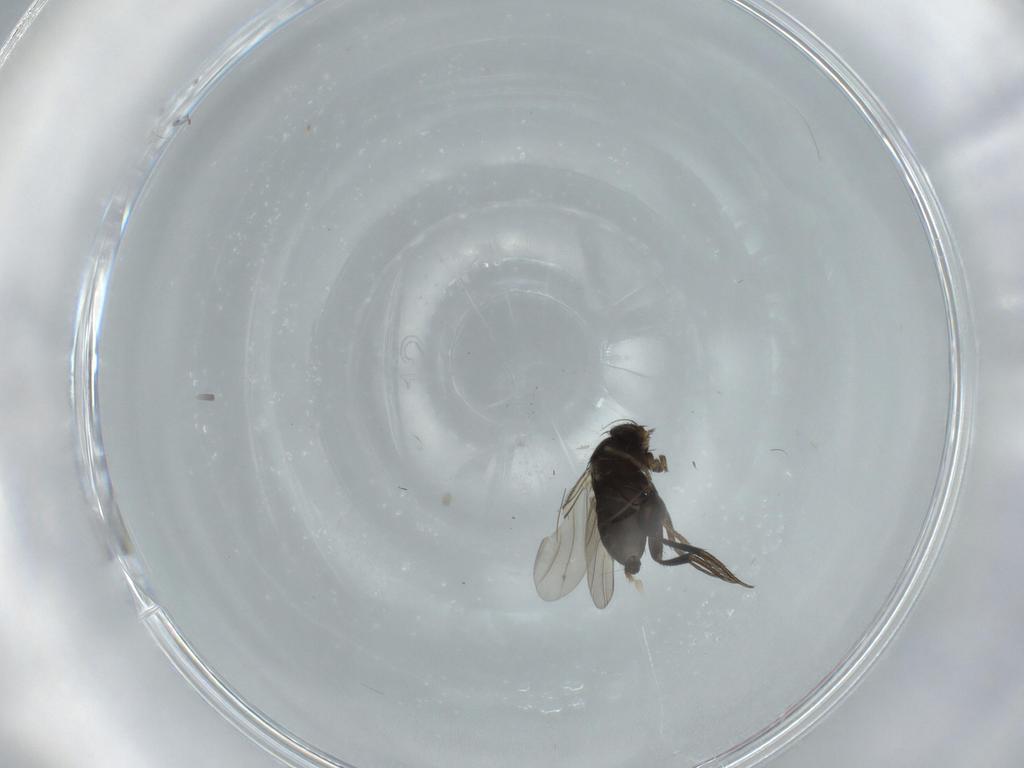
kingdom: Animalia
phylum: Arthropoda
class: Insecta
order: Diptera
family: Phoridae
